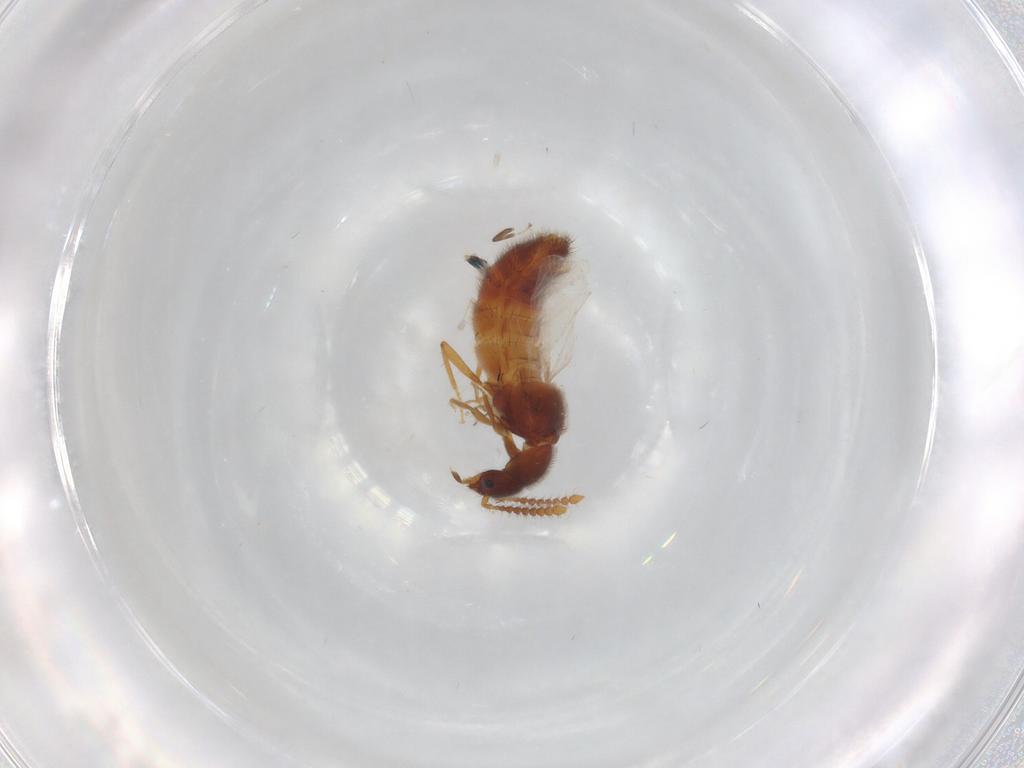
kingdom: Animalia
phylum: Arthropoda
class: Insecta
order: Coleoptera
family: Staphylinidae
